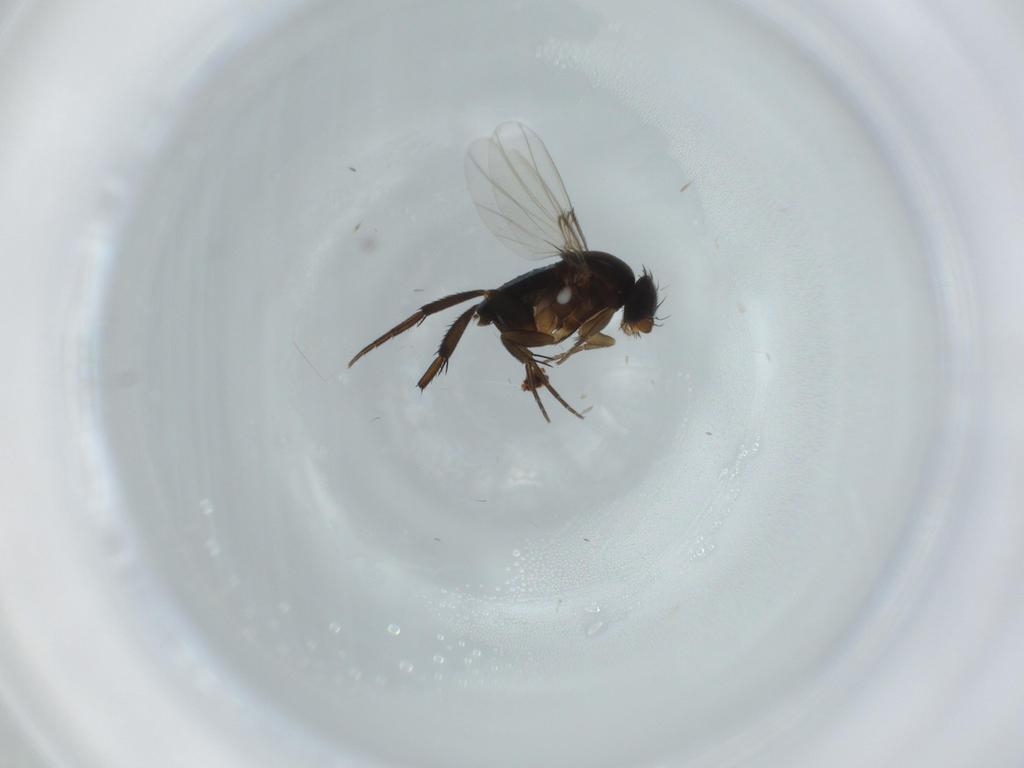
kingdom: Animalia
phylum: Arthropoda
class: Insecta
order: Diptera
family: Phoridae
